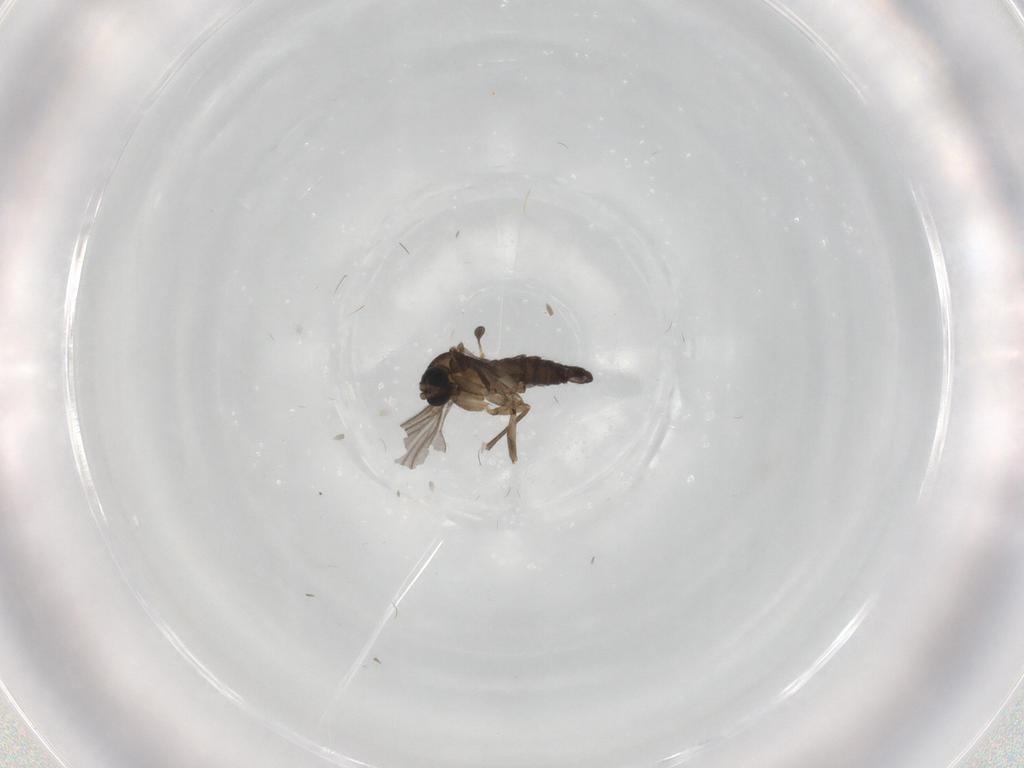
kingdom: Animalia
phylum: Arthropoda
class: Insecta
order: Diptera
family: Sciaridae
